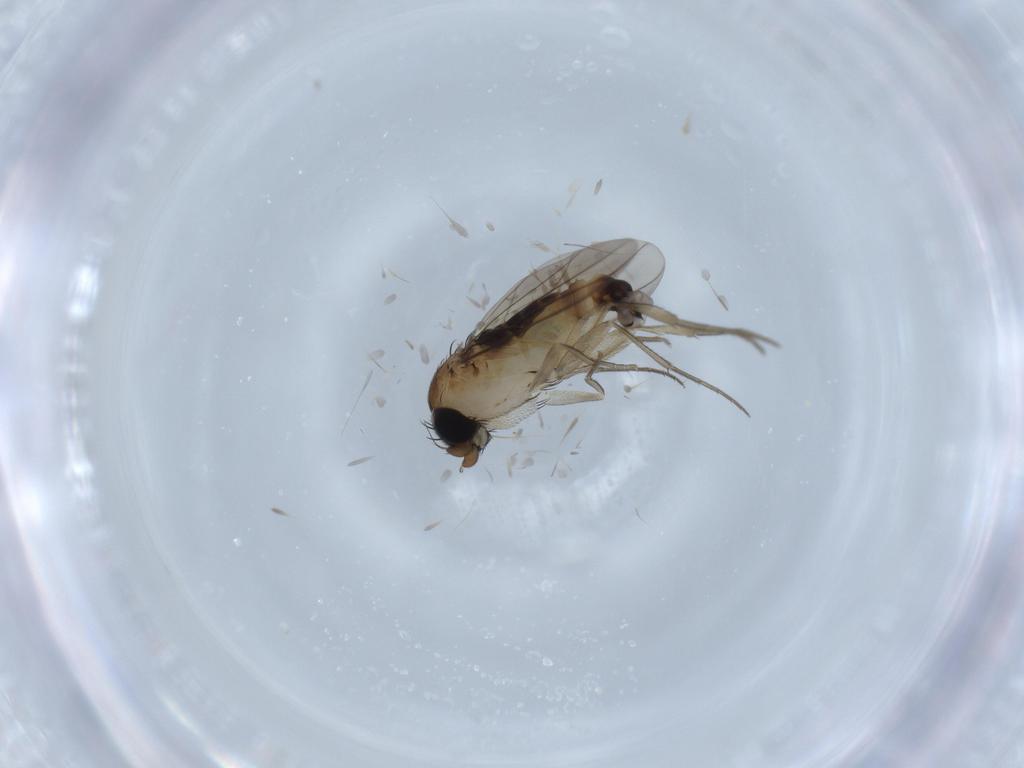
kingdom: Animalia
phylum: Arthropoda
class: Insecta
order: Diptera
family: Phoridae
